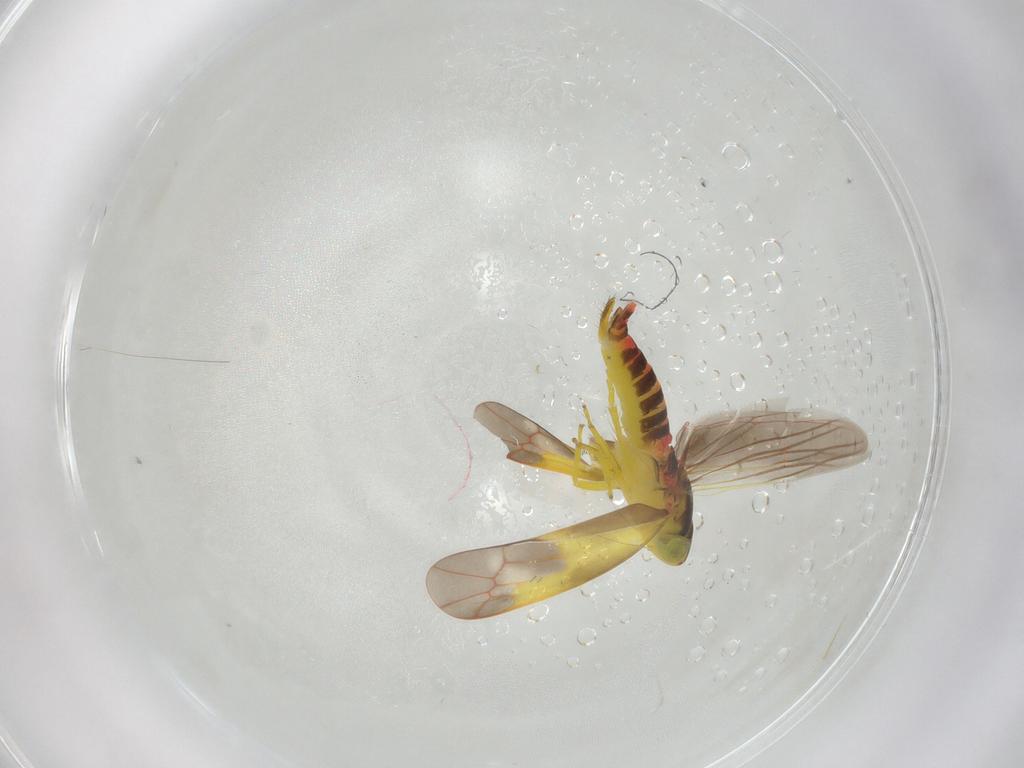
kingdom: Animalia
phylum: Arthropoda
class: Insecta
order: Hemiptera
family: Cicadellidae
